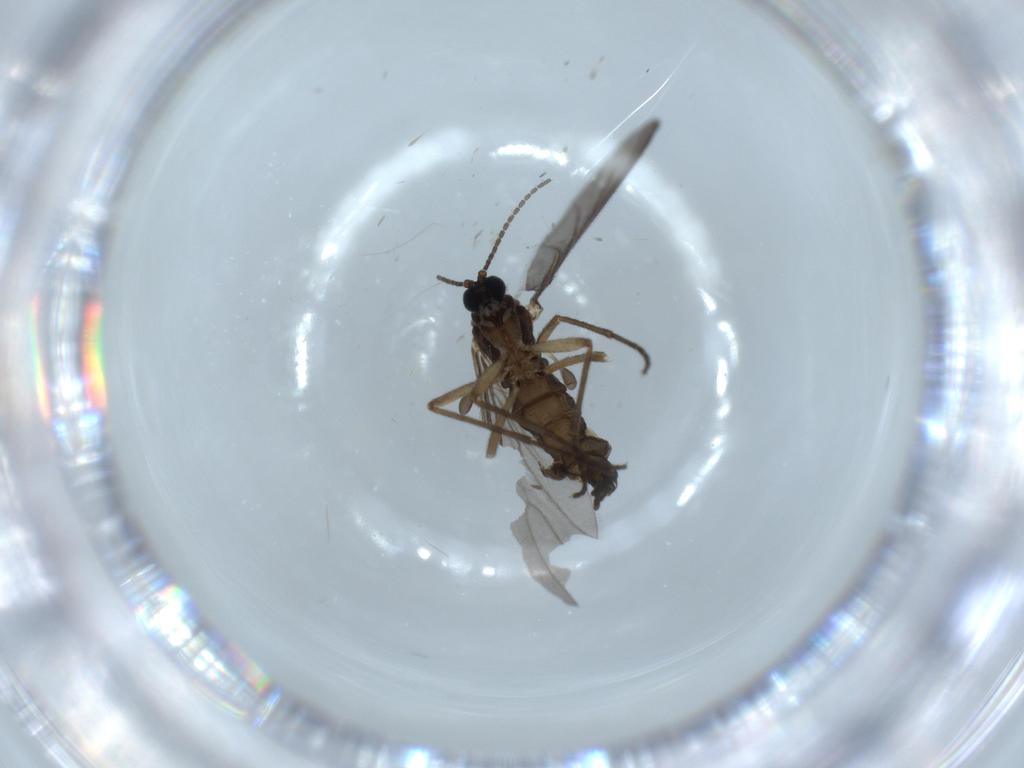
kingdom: Animalia
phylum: Arthropoda
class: Insecta
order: Diptera
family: Sciaridae
